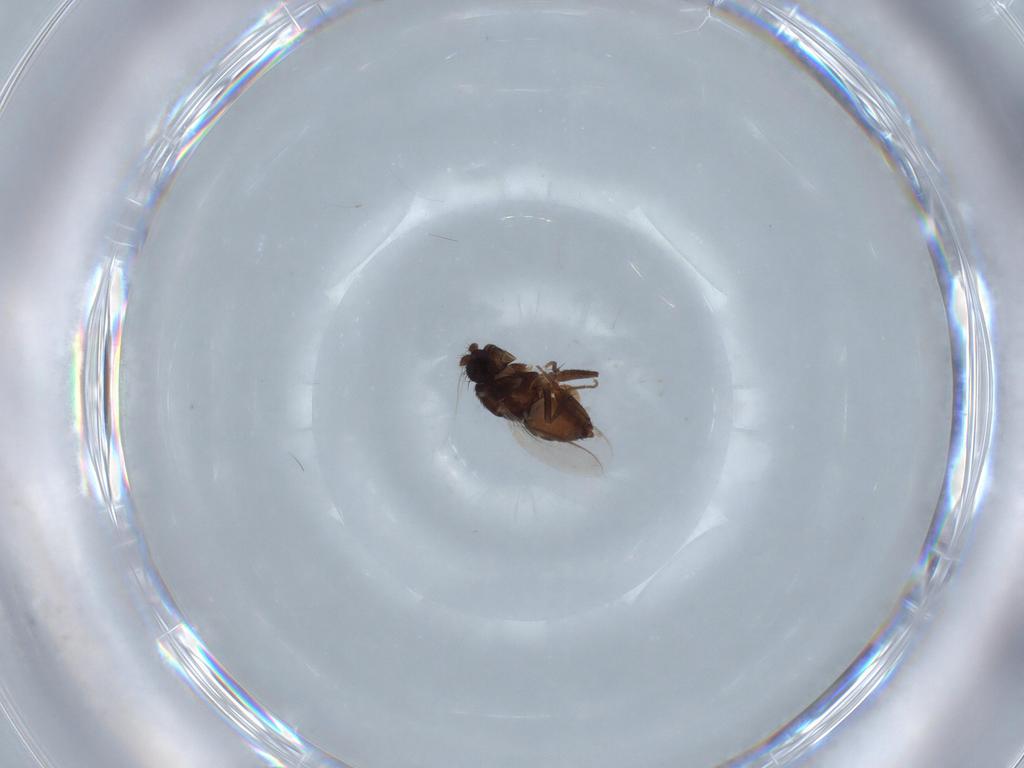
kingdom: Animalia
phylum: Arthropoda
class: Insecta
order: Diptera
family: Sphaeroceridae
